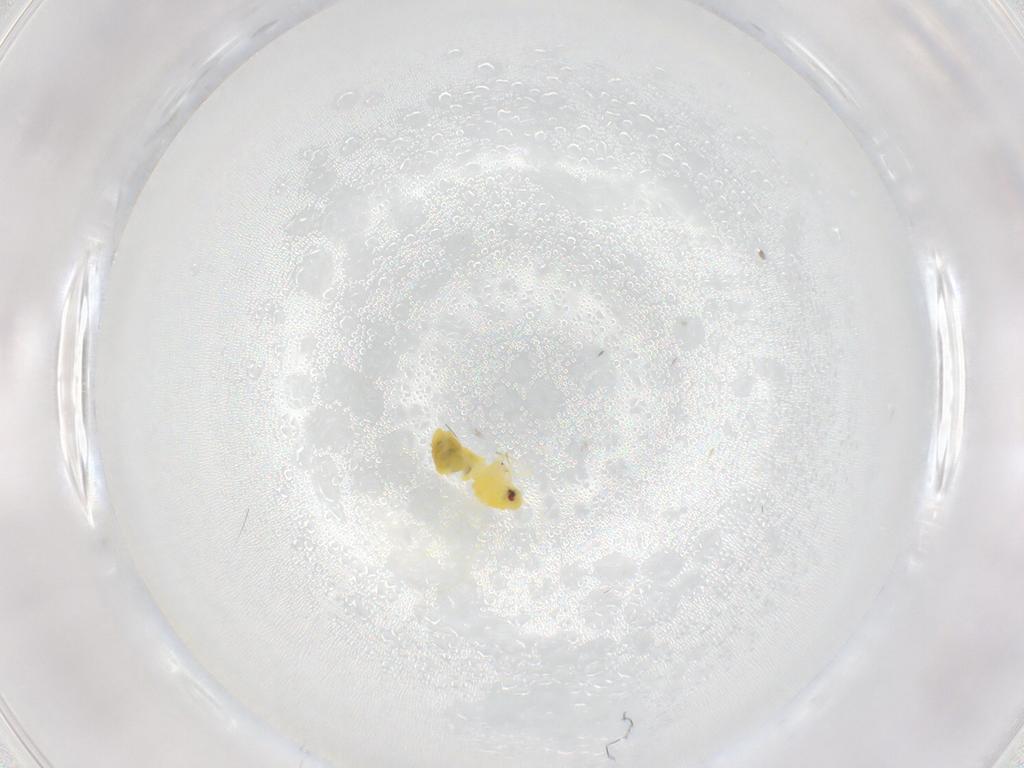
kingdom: Animalia
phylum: Arthropoda
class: Insecta
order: Hemiptera
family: Aleyrodidae
